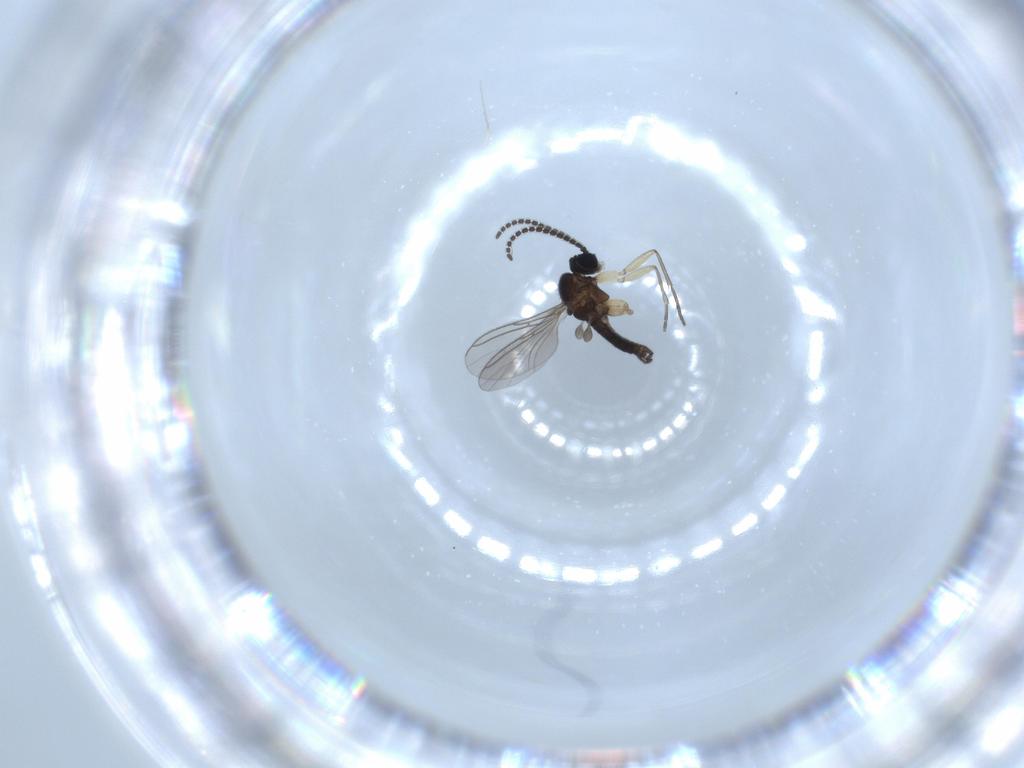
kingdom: Animalia
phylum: Arthropoda
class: Insecta
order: Diptera
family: Sciaridae
